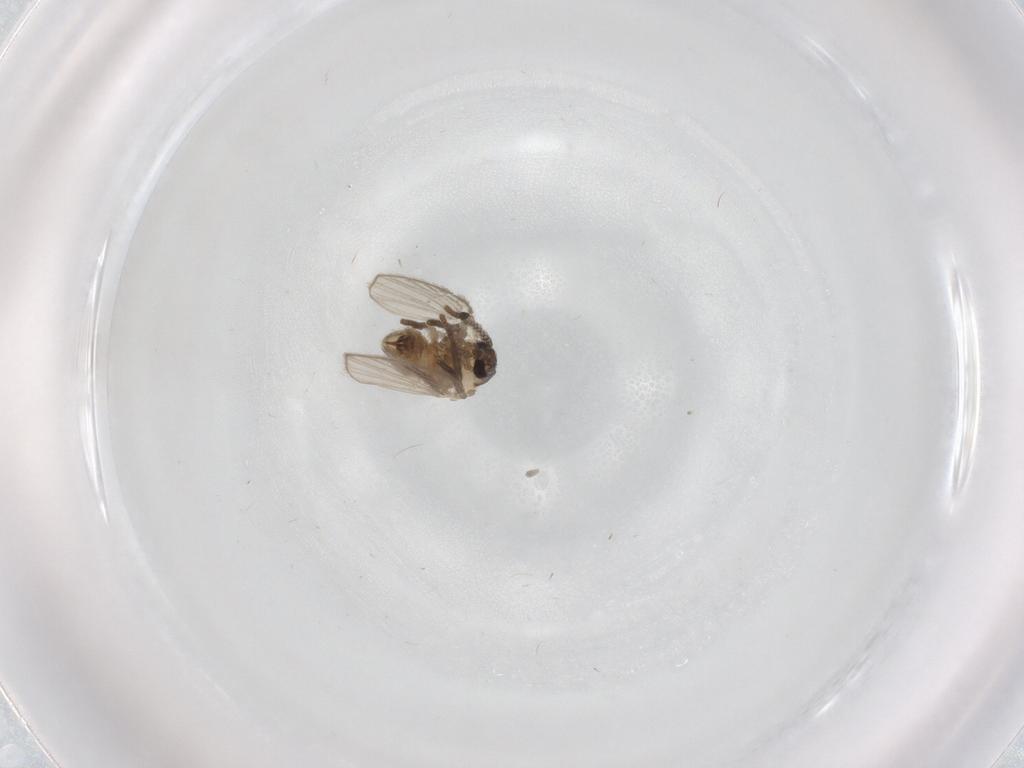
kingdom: Animalia
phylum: Arthropoda
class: Insecta
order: Diptera
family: Psychodidae
